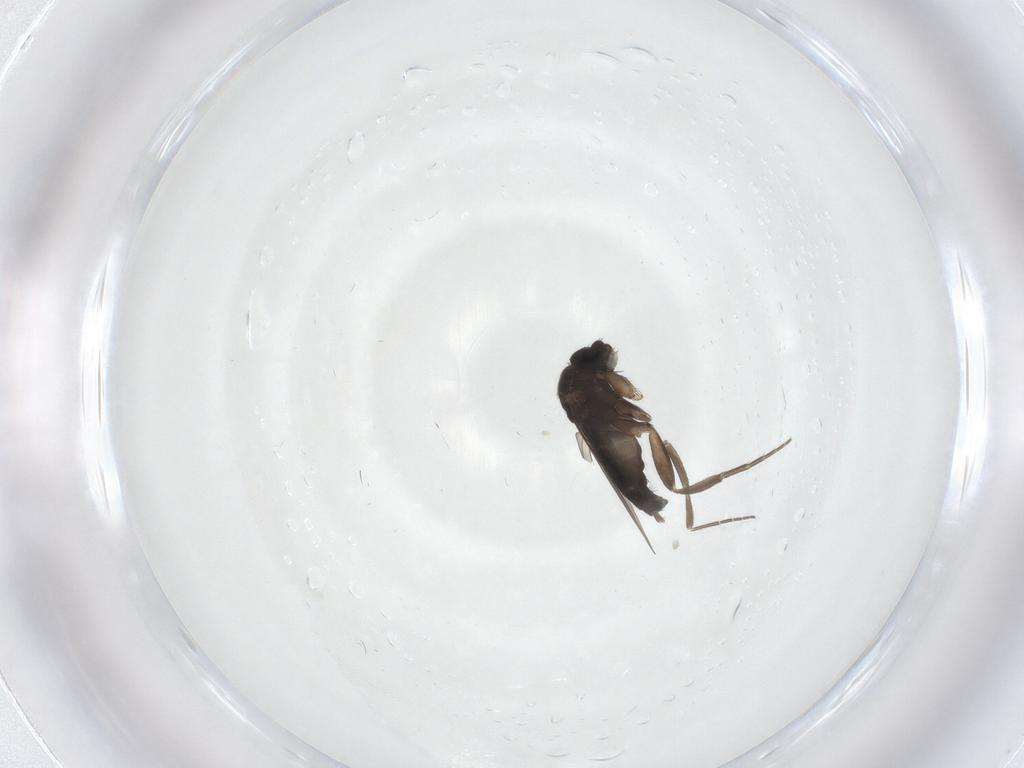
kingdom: Animalia
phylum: Arthropoda
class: Insecta
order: Diptera
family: Phoridae
